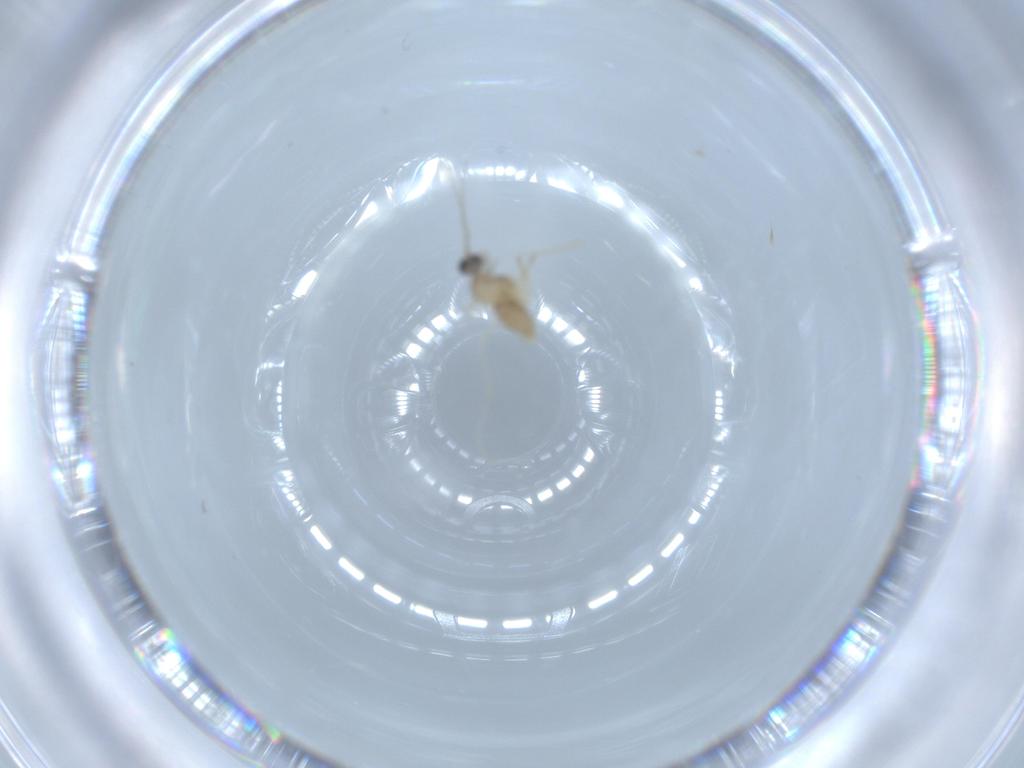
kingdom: Animalia
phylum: Arthropoda
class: Insecta
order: Diptera
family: Cecidomyiidae
